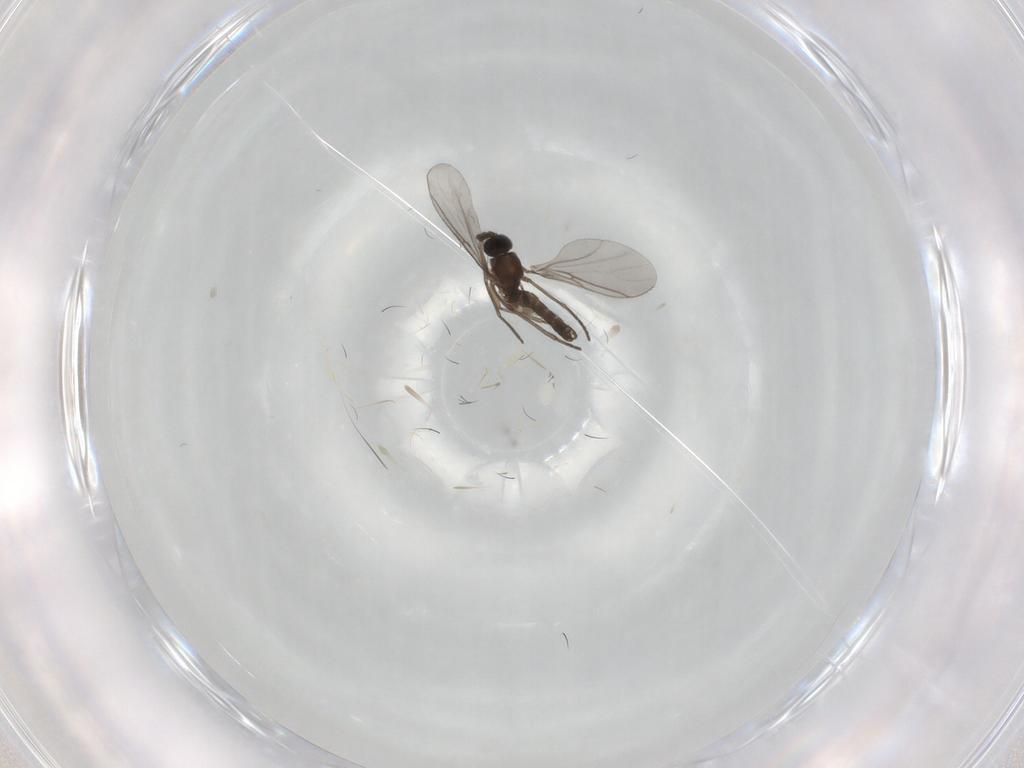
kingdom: Animalia
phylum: Arthropoda
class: Insecta
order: Diptera
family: Sciaridae
